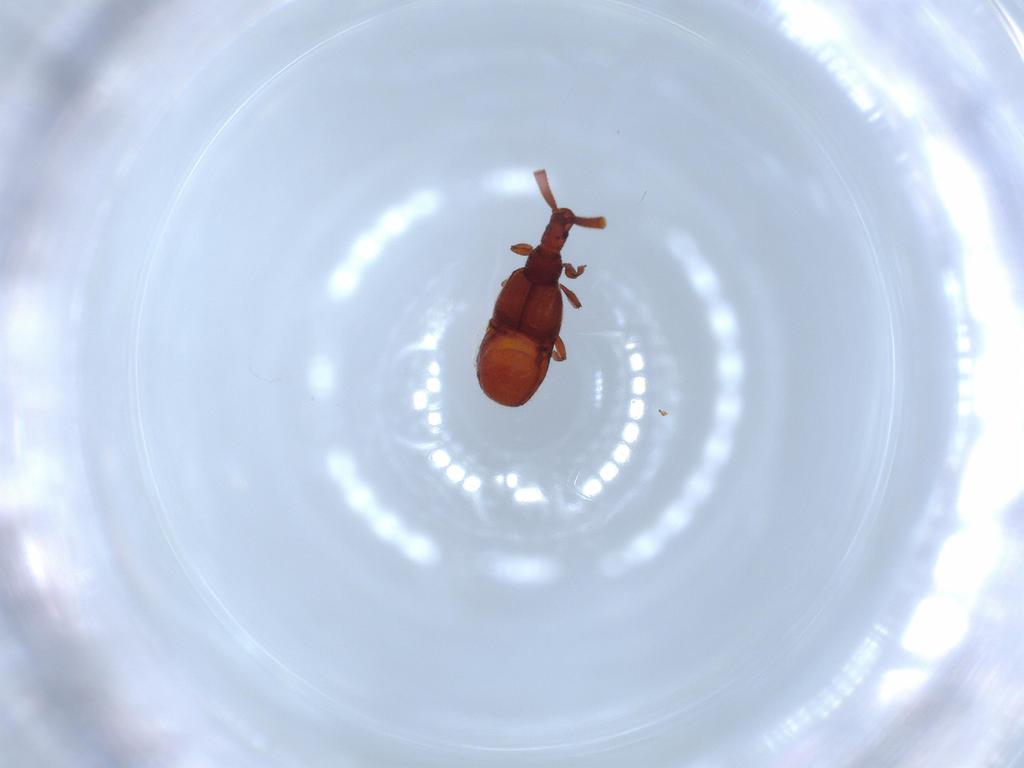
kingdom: Animalia
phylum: Arthropoda
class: Insecta
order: Coleoptera
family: Staphylinidae
